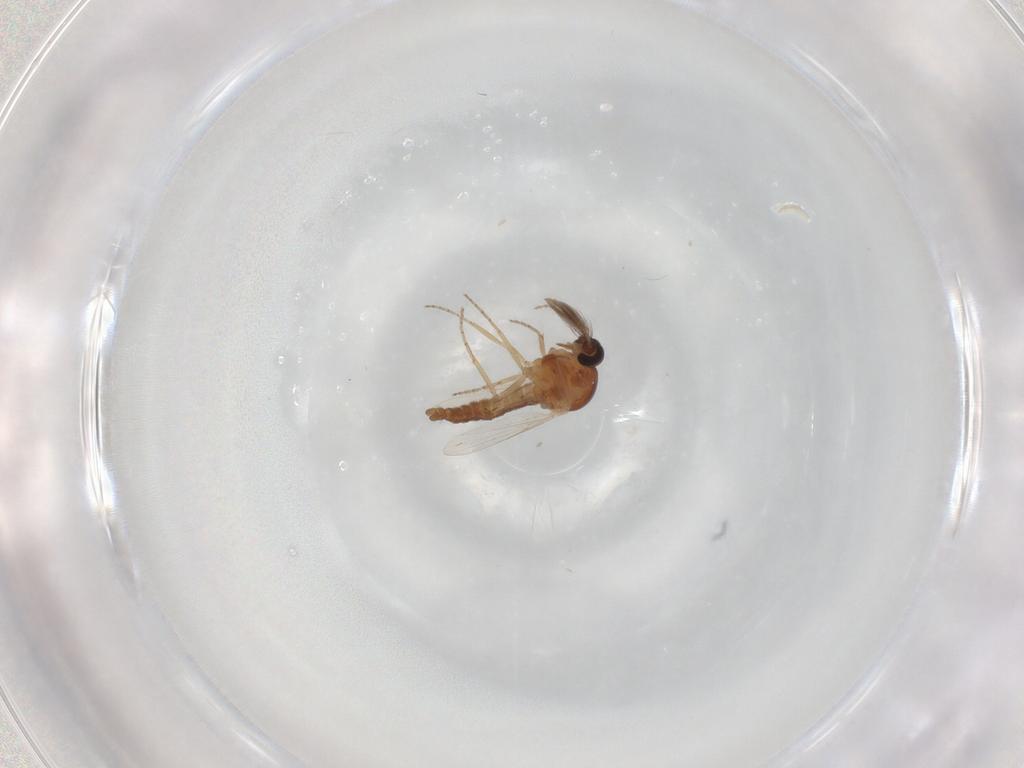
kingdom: Animalia
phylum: Arthropoda
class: Insecta
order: Diptera
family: Ceratopogonidae
